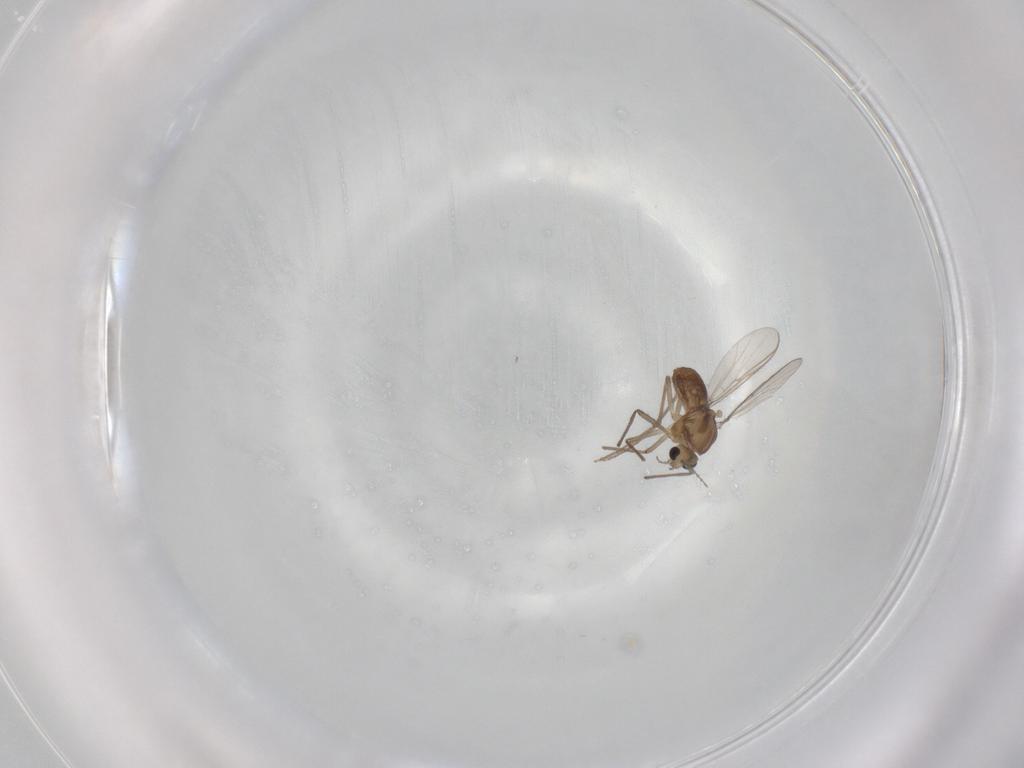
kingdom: Animalia
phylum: Arthropoda
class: Insecta
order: Diptera
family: Chironomidae
